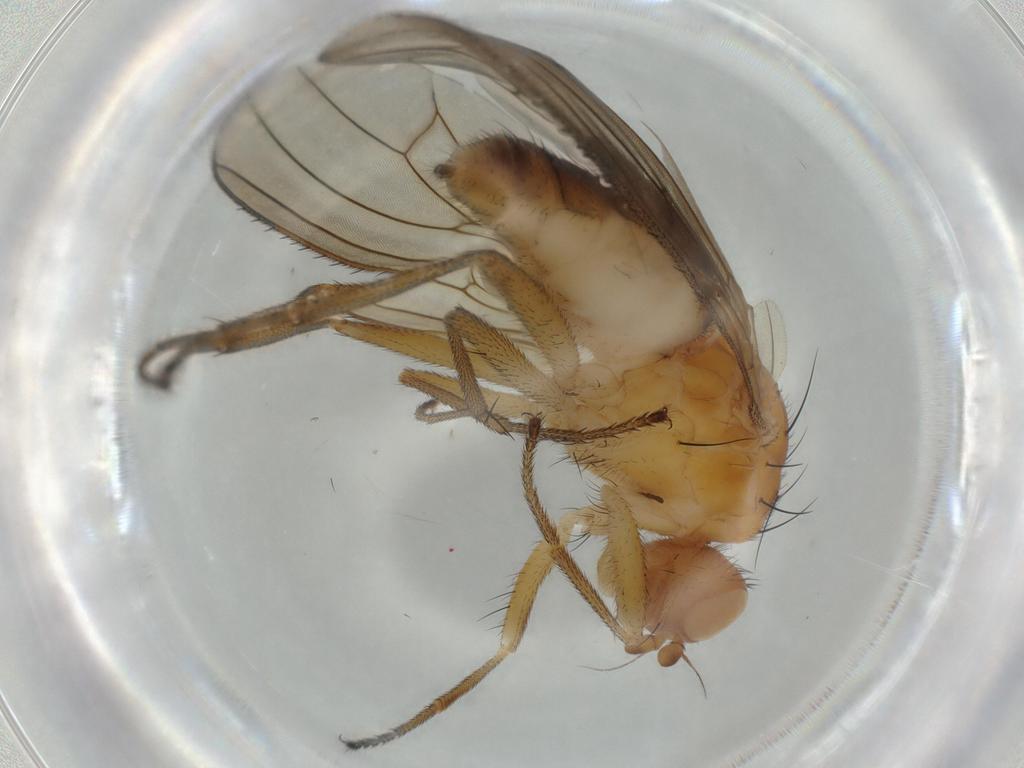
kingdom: Animalia
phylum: Arthropoda
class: Insecta
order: Diptera
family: Heleomyzidae
